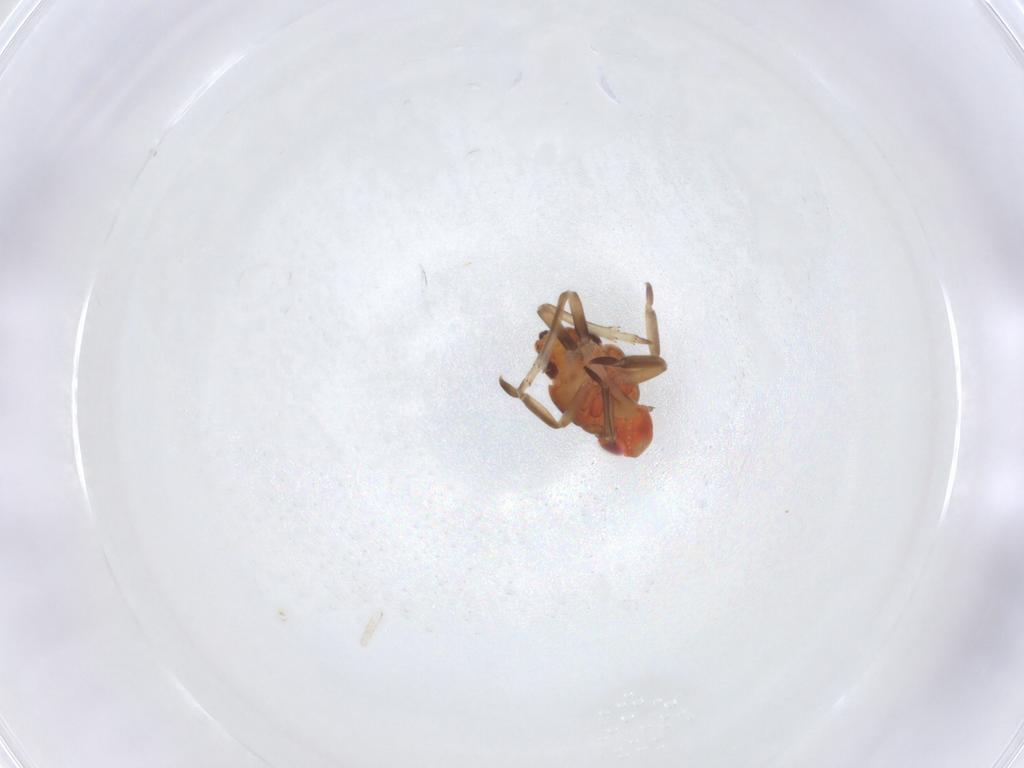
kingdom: Animalia
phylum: Arthropoda
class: Insecta
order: Hemiptera
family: Fulgoroidea_incertae_sedis
